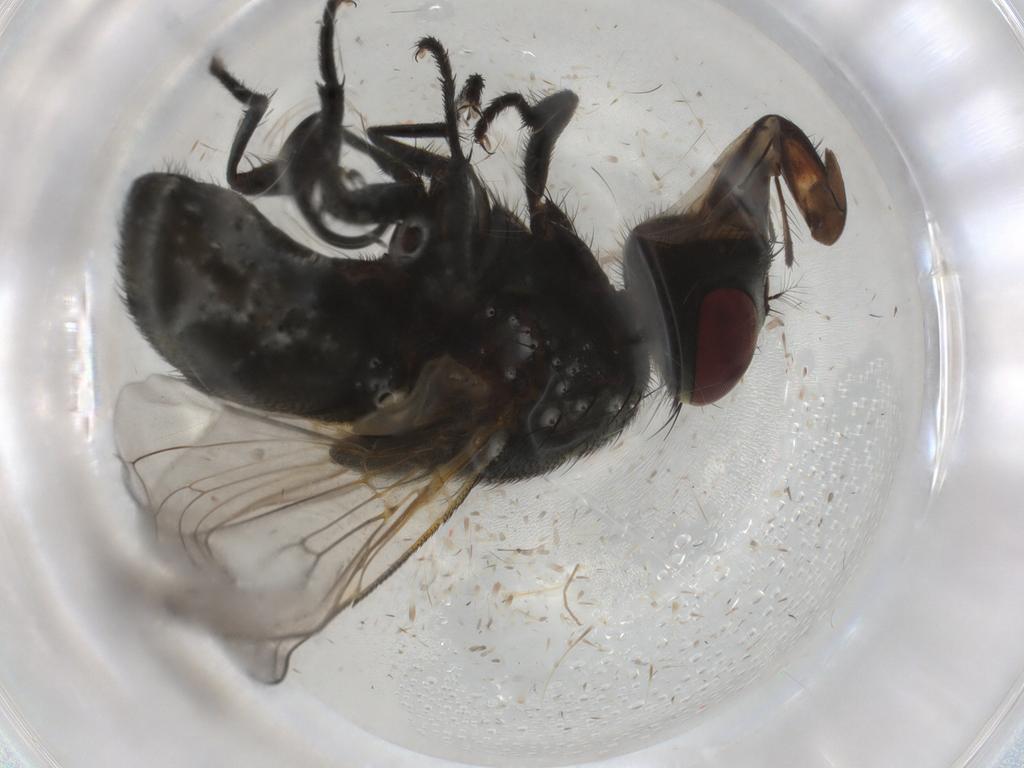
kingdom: Animalia
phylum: Arthropoda
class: Insecta
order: Diptera
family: Muscidae
